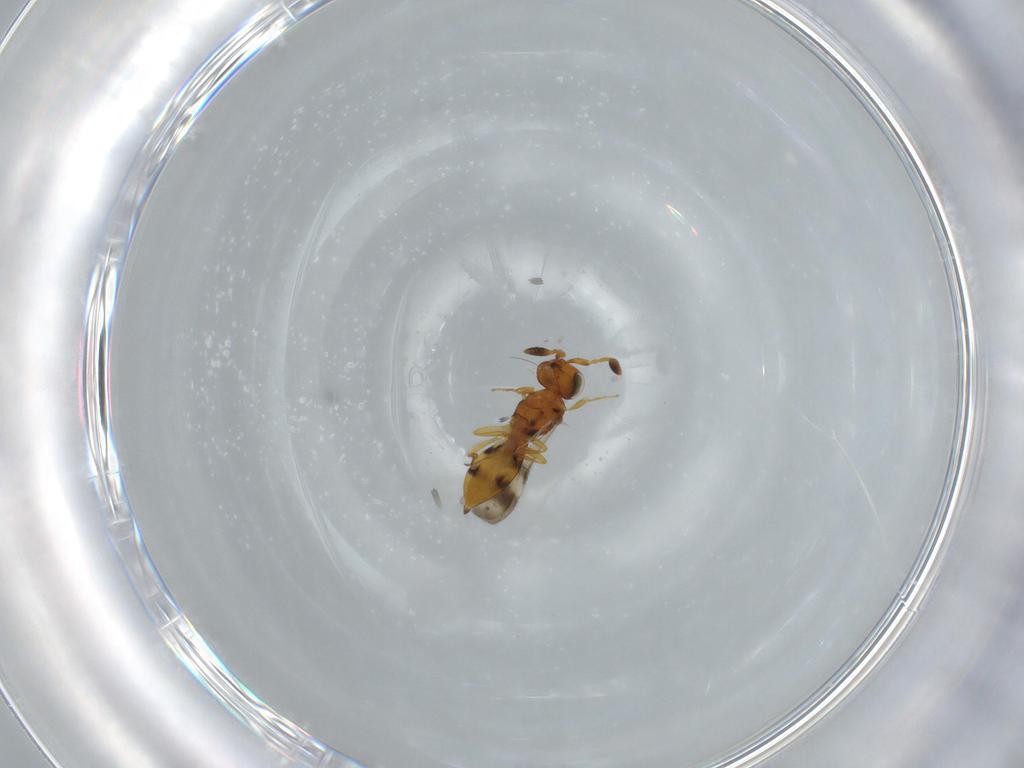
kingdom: Animalia
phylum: Arthropoda
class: Insecta
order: Hymenoptera
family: Scelionidae
